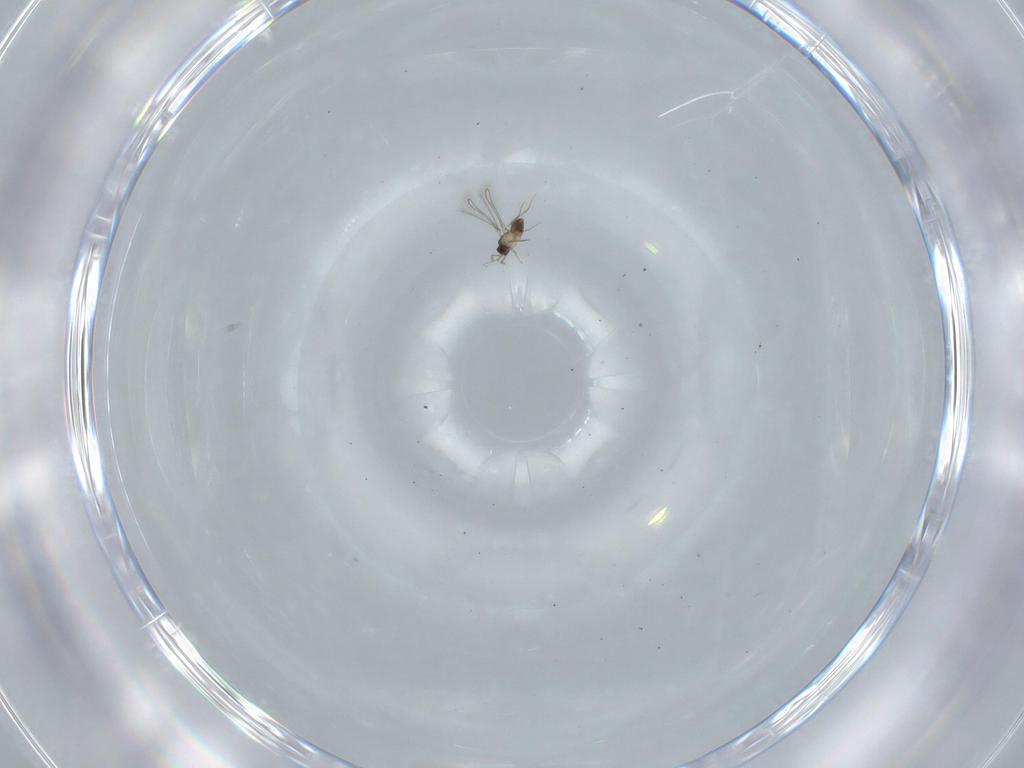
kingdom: Animalia
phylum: Arthropoda
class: Insecta
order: Hymenoptera
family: Mymaridae
